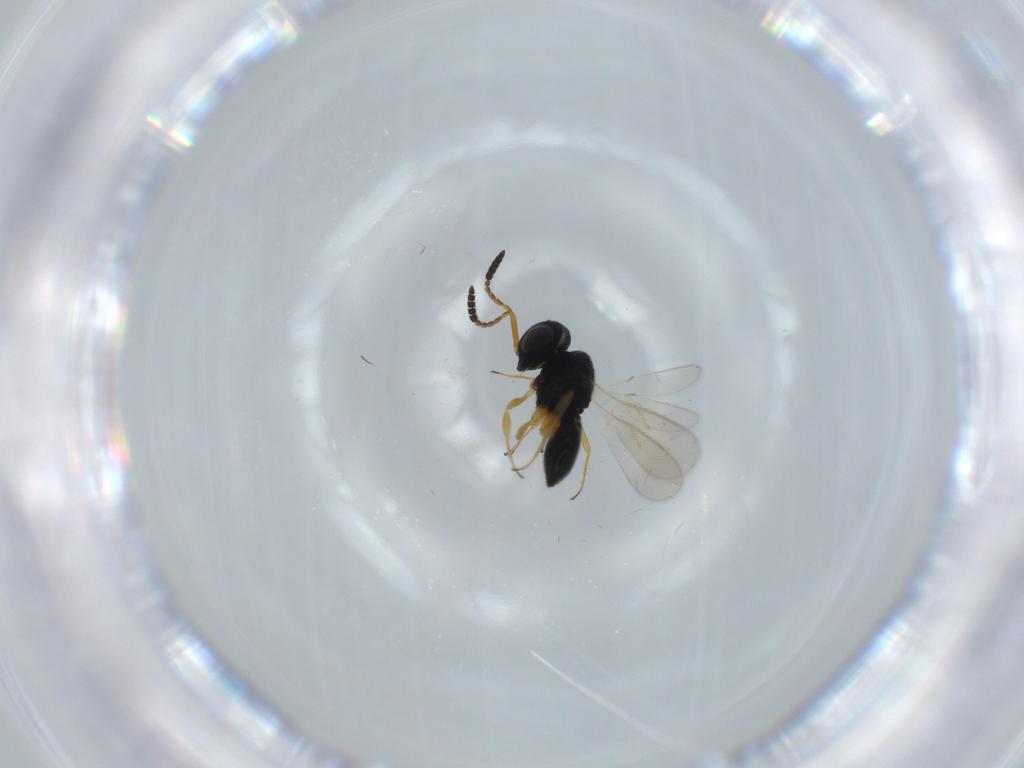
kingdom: Animalia
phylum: Arthropoda
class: Insecta
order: Hymenoptera
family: Scelionidae
